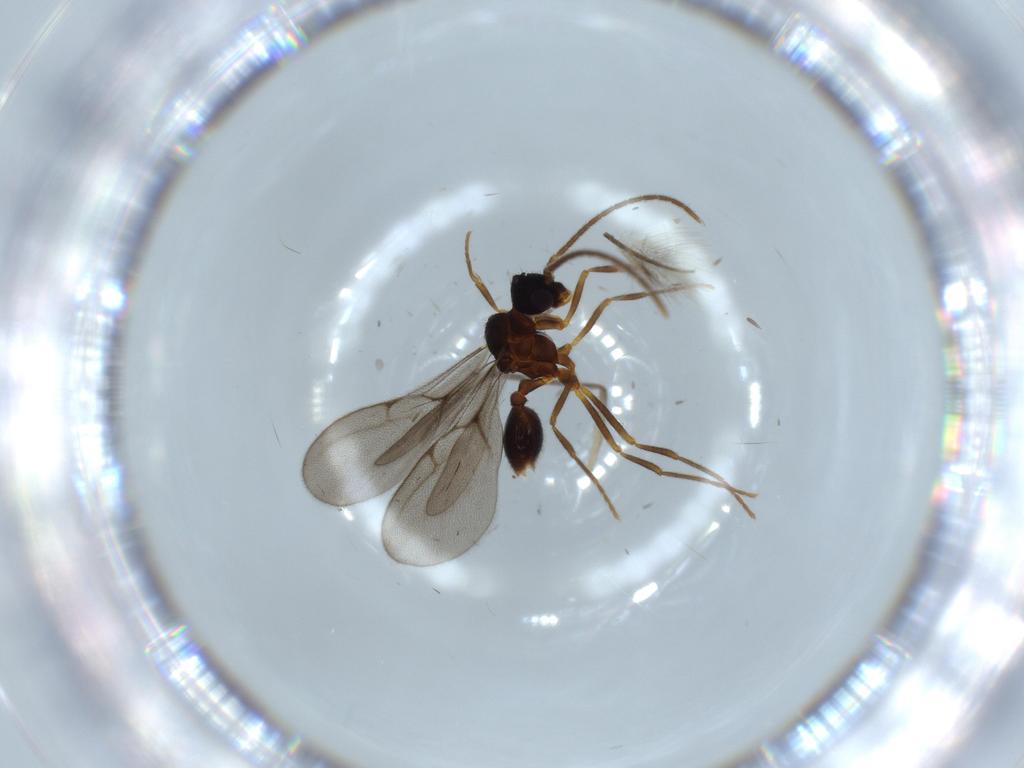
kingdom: Animalia
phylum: Arthropoda
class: Insecta
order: Hymenoptera
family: Formicidae
